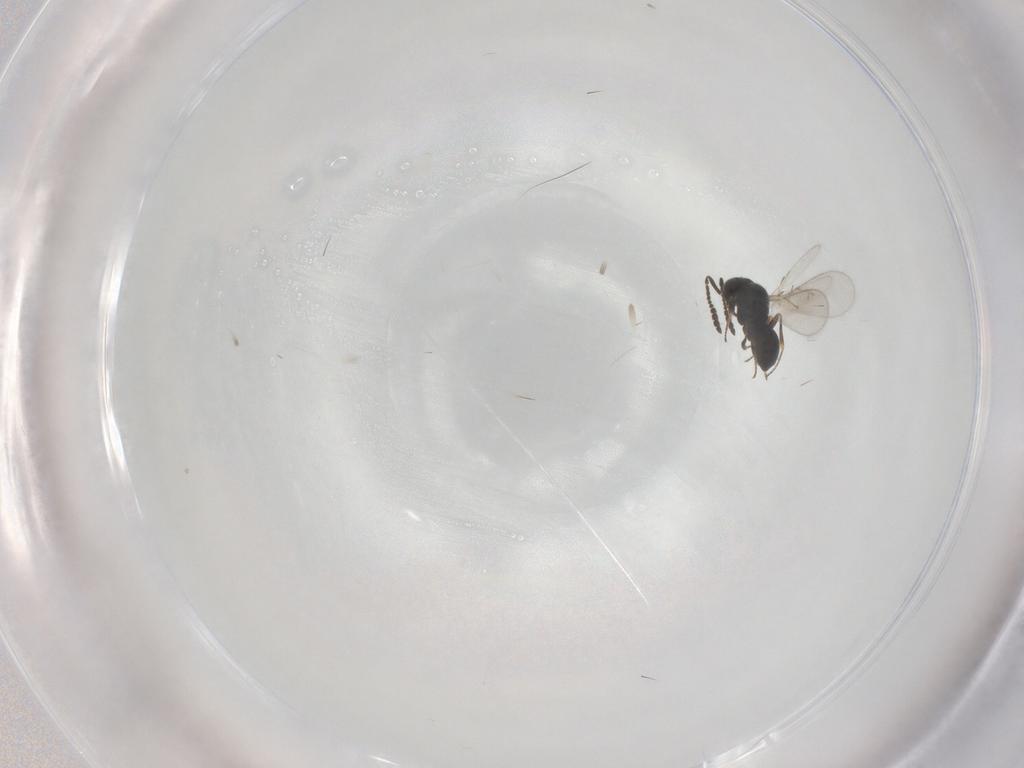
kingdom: Animalia
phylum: Arthropoda
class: Insecta
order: Hymenoptera
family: Scelionidae
